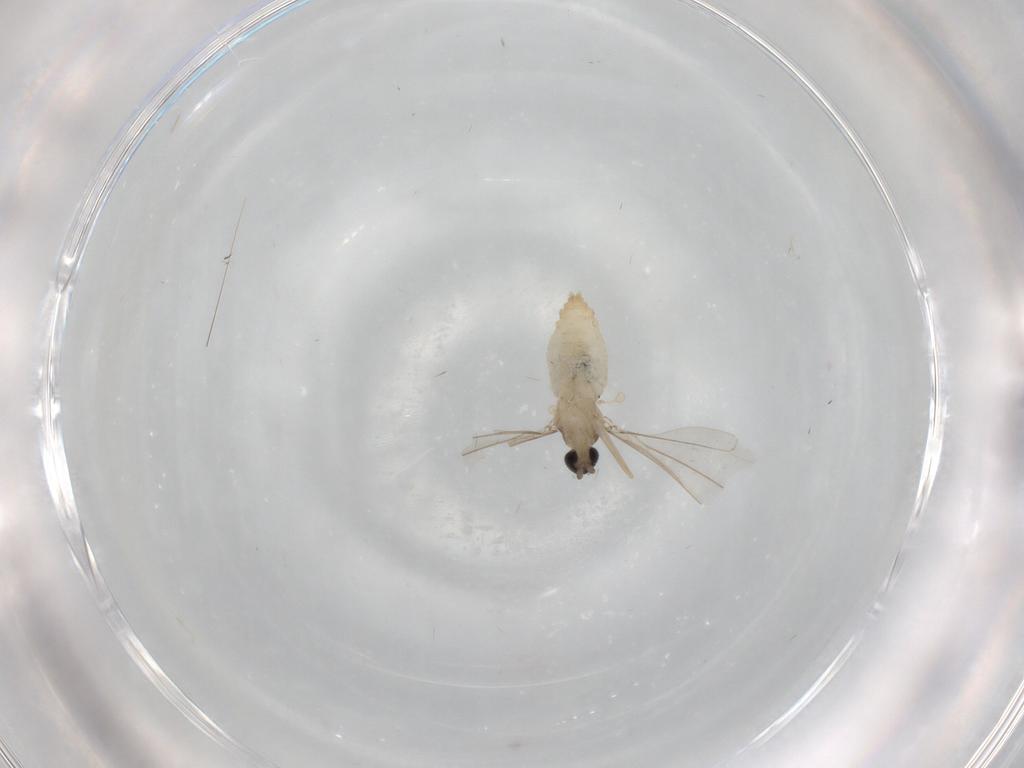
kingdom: Animalia
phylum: Arthropoda
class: Insecta
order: Diptera
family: Cecidomyiidae
